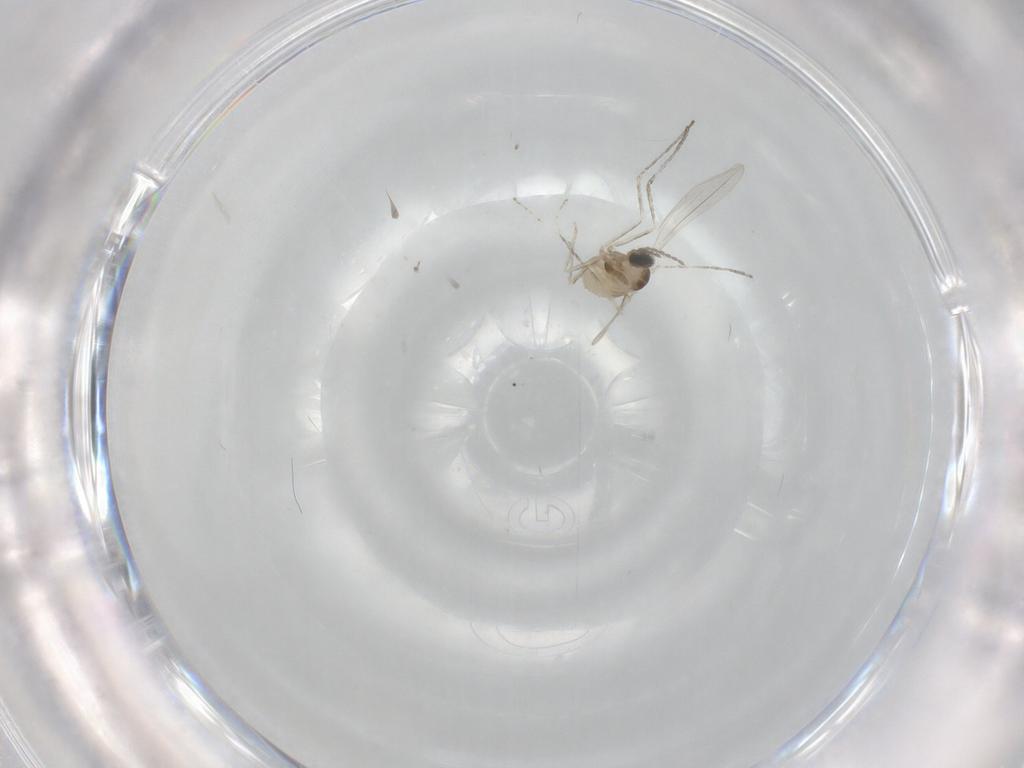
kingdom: Animalia
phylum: Arthropoda
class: Insecta
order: Diptera
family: Cecidomyiidae
